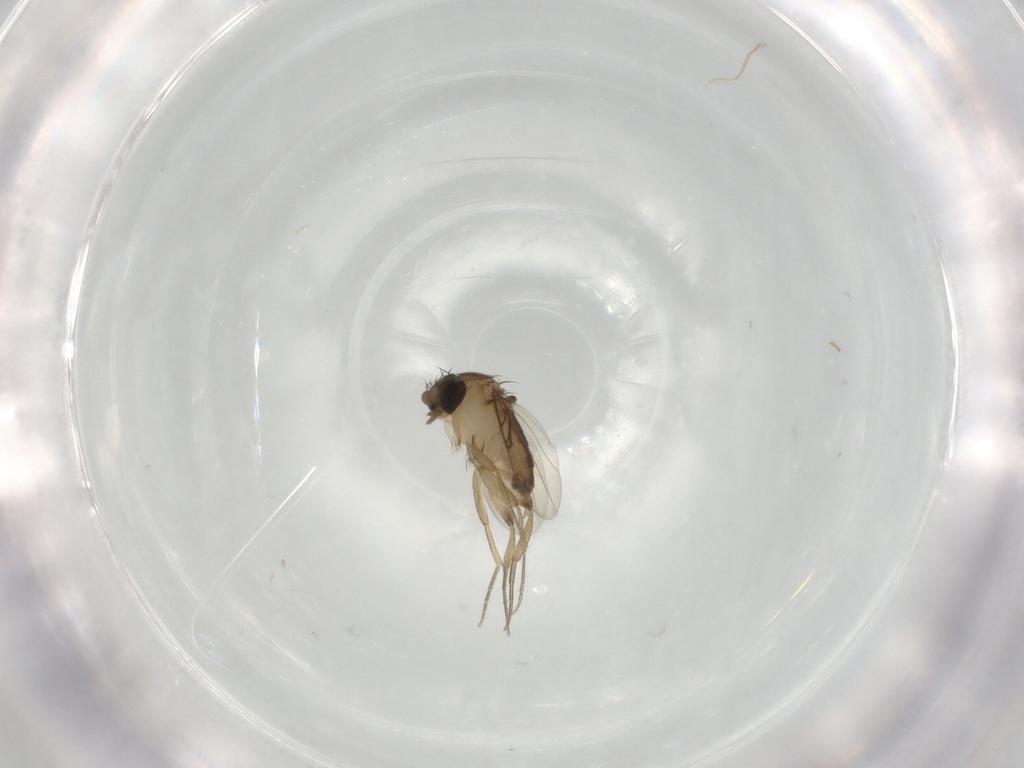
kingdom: Animalia
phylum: Arthropoda
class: Insecta
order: Diptera
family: Phoridae
